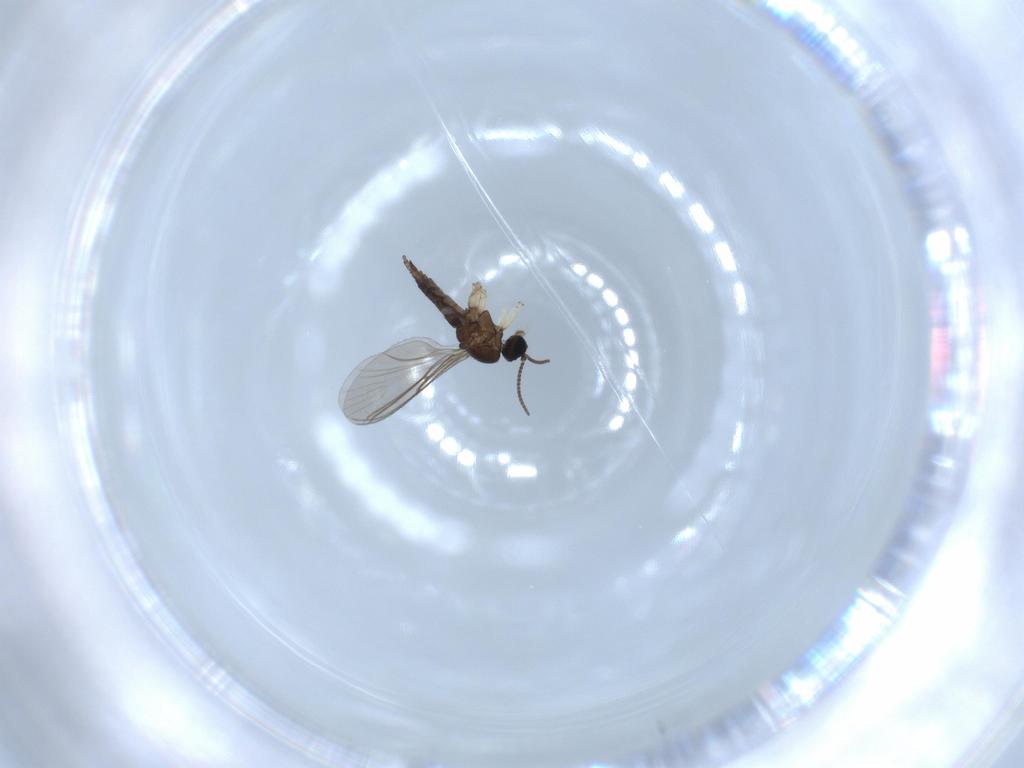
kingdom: Animalia
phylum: Arthropoda
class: Insecta
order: Diptera
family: Sciaridae
